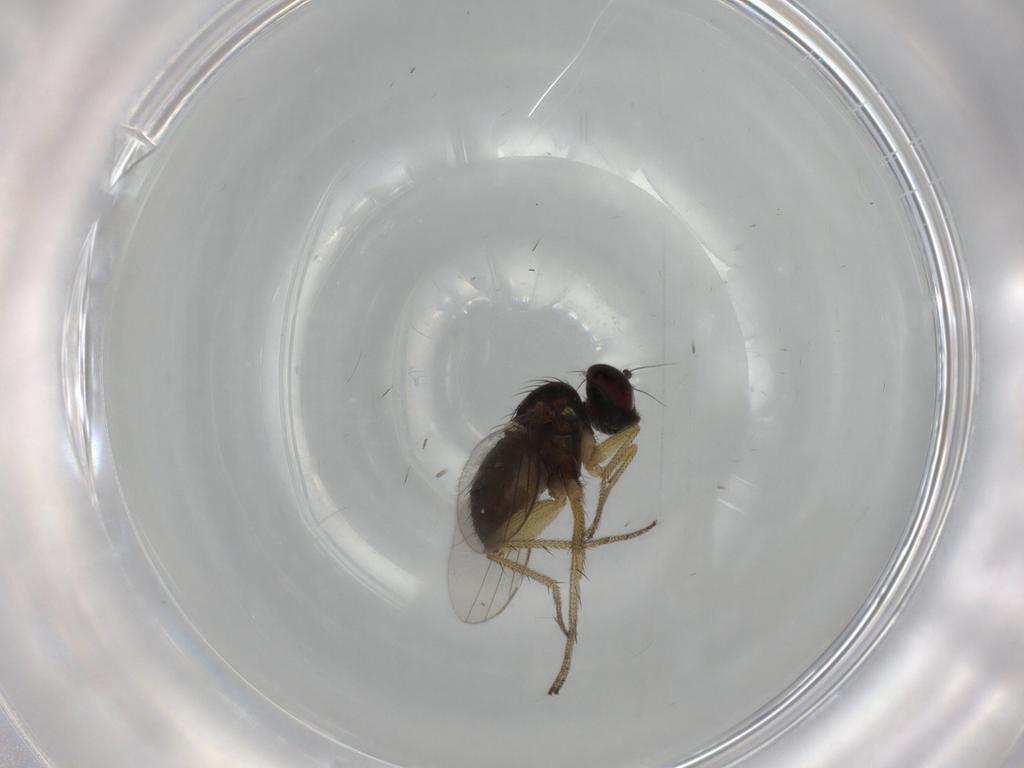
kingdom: Animalia
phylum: Arthropoda
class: Insecta
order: Diptera
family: Dolichopodidae
